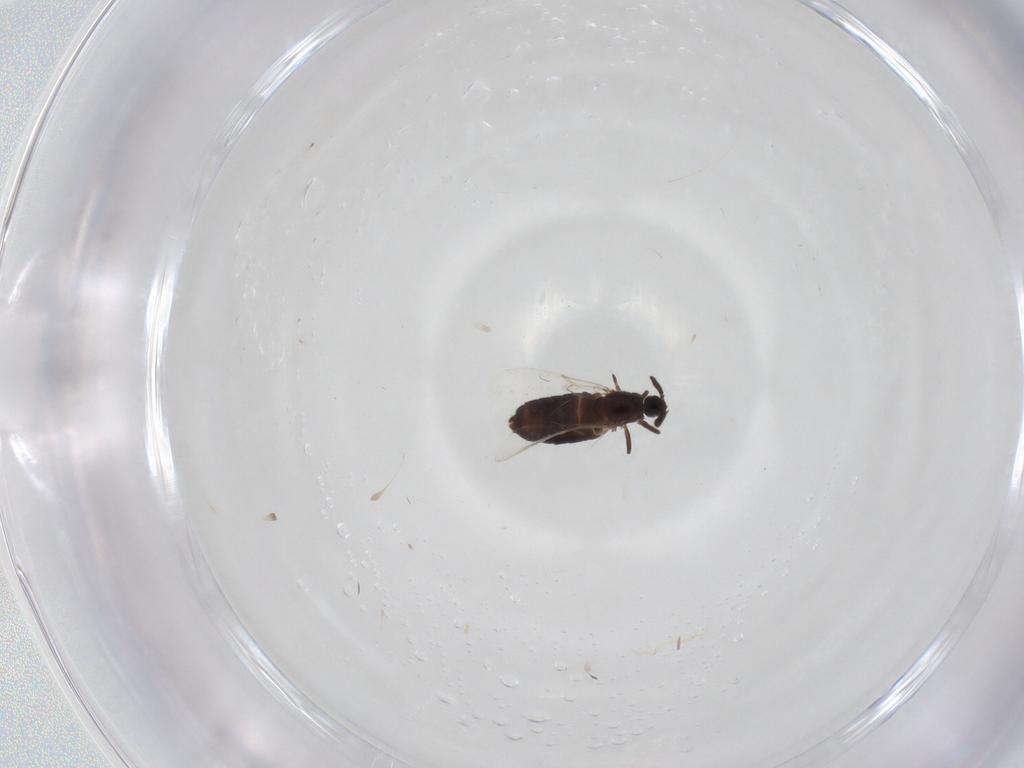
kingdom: Animalia
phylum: Arthropoda
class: Insecta
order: Diptera
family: Scatopsidae
